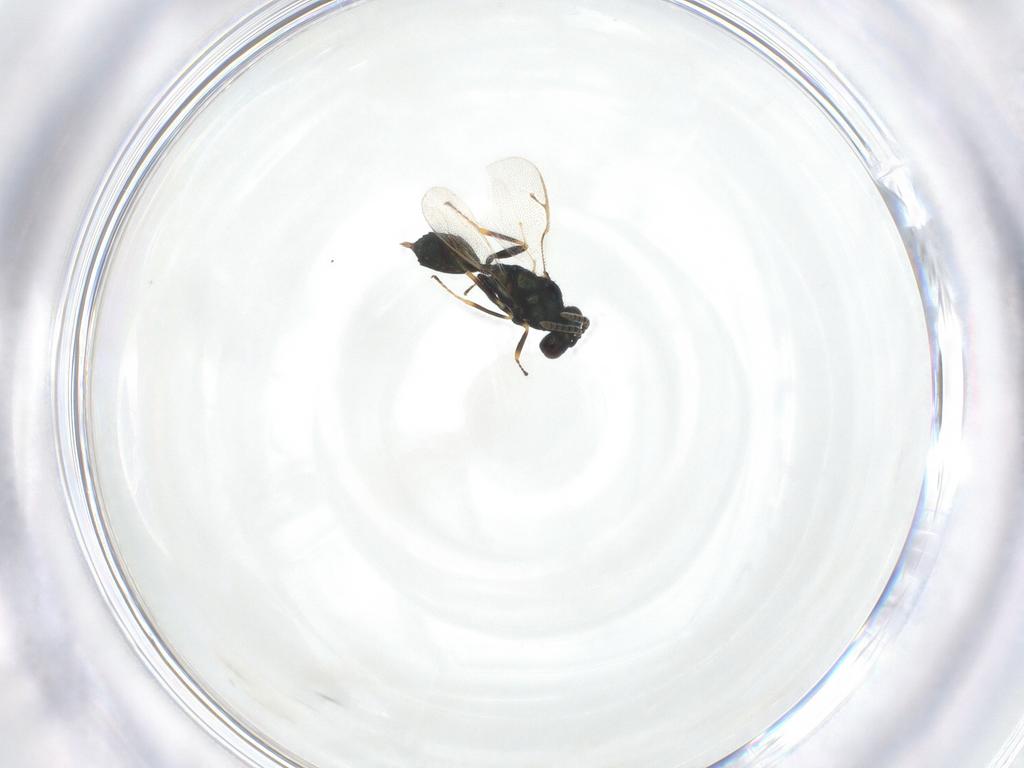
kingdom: Animalia
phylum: Arthropoda
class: Insecta
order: Hymenoptera
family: Pteromalidae
